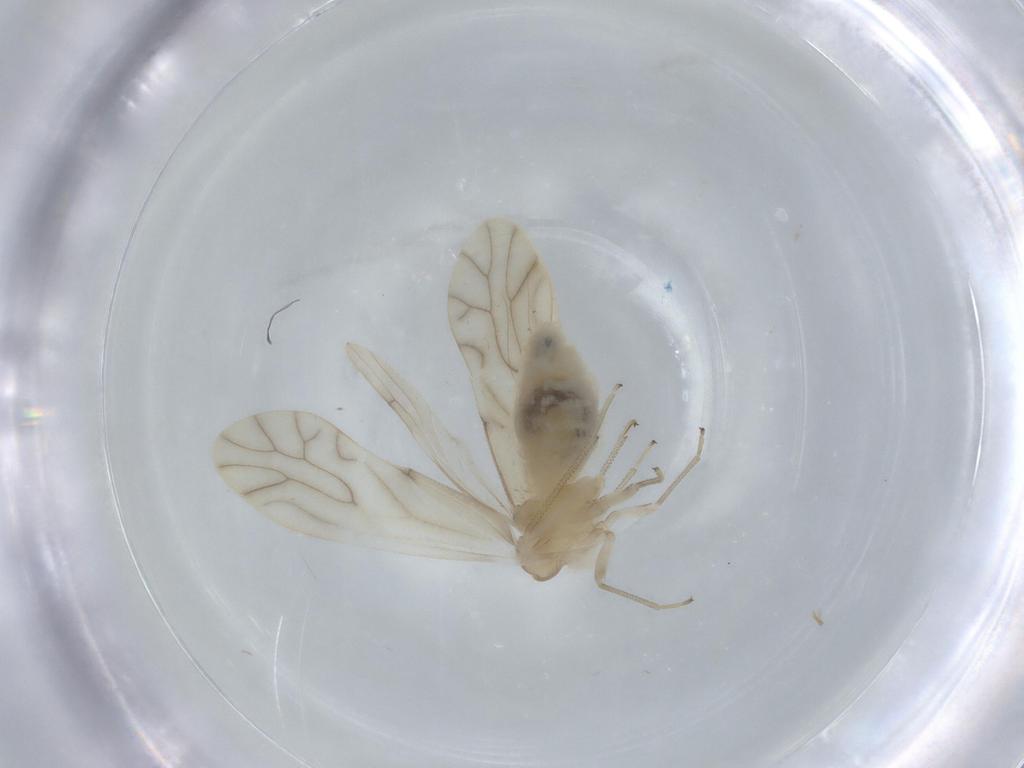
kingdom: Animalia
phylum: Arthropoda
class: Insecta
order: Psocodea
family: Caeciliusidae
